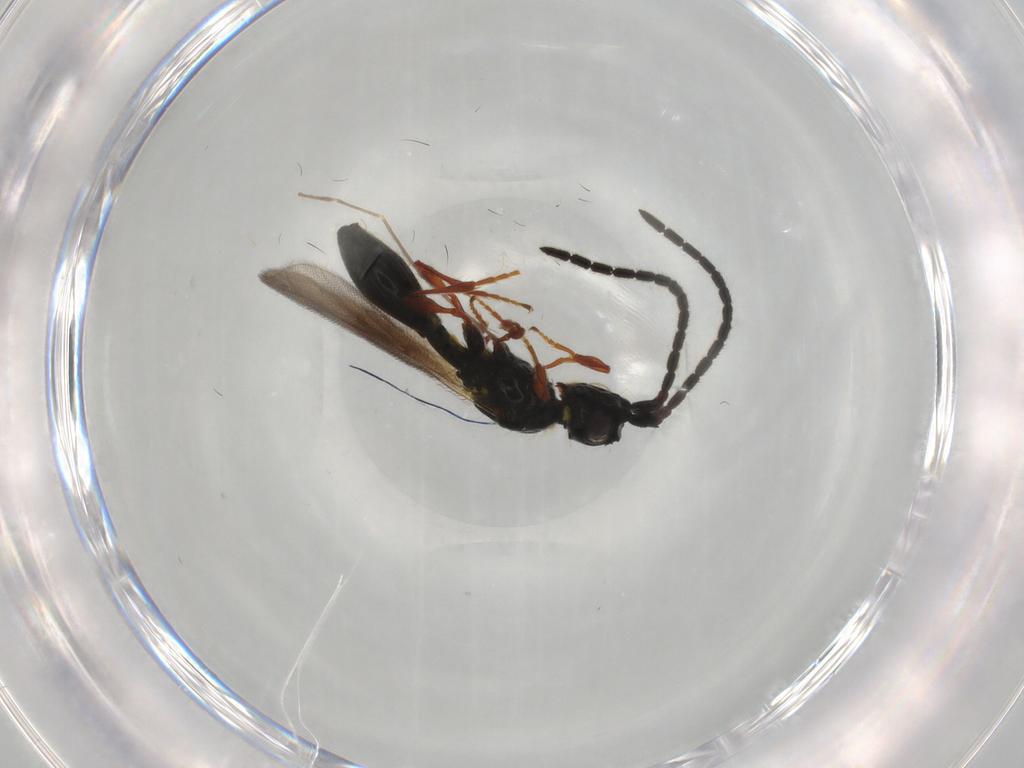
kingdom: Animalia
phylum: Arthropoda
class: Insecta
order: Hymenoptera
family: Diapriidae
